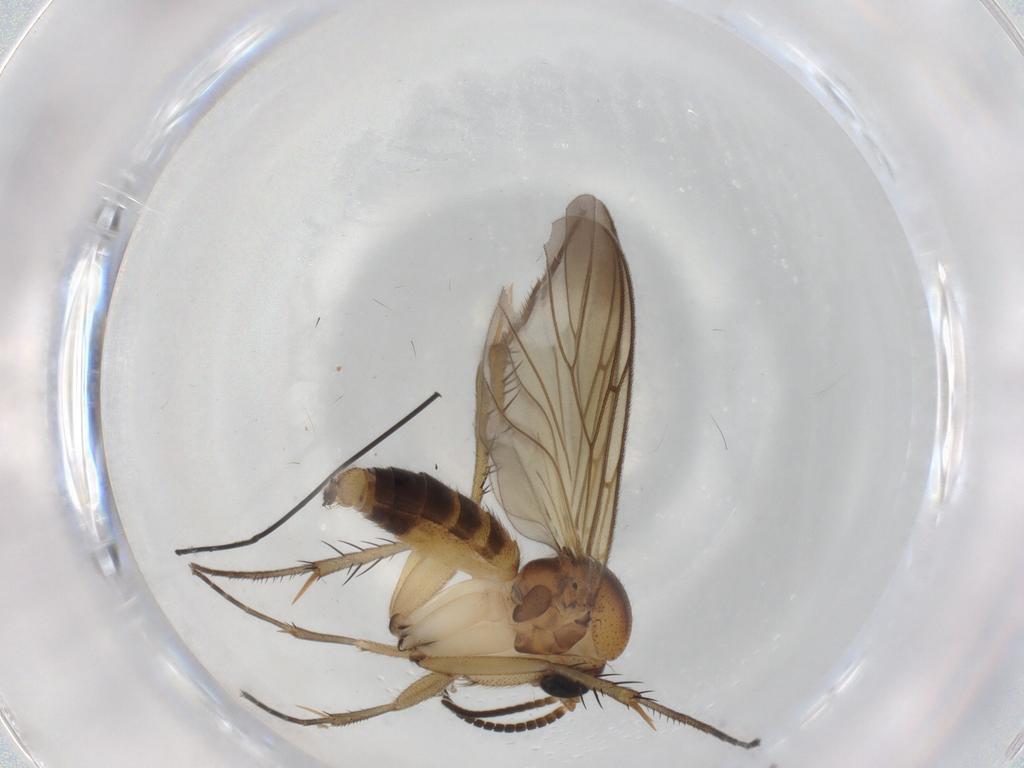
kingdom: Animalia
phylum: Arthropoda
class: Insecta
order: Diptera
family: Mycetophilidae
